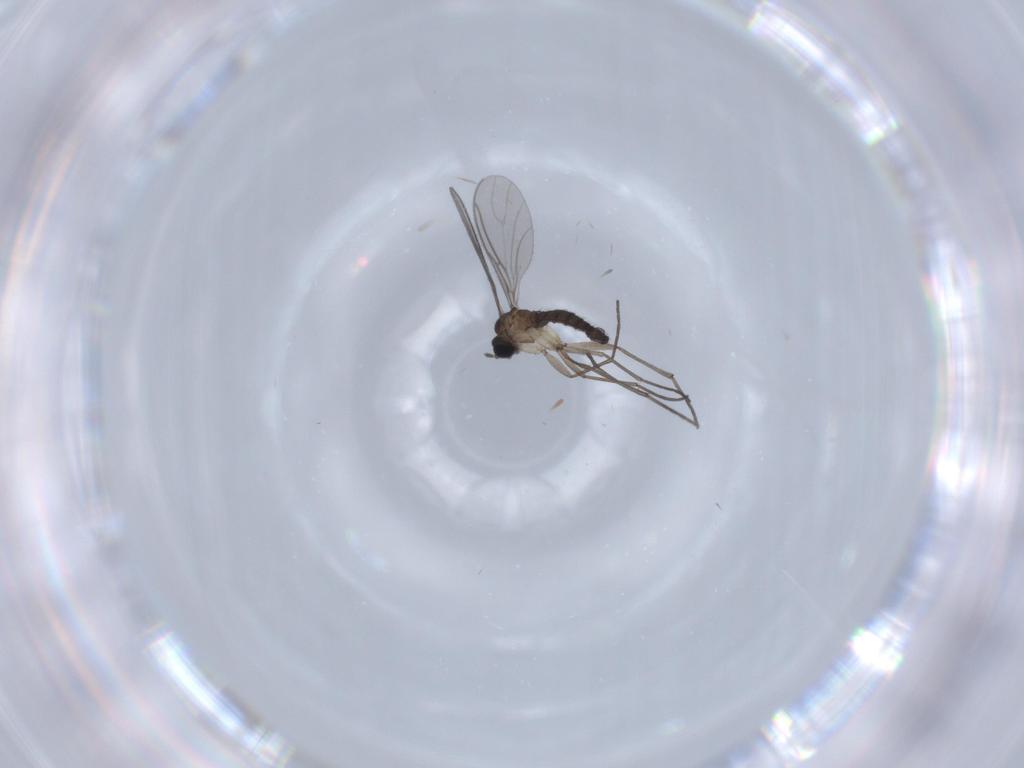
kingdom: Animalia
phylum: Arthropoda
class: Insecta
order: Diptera
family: Sciaridae
